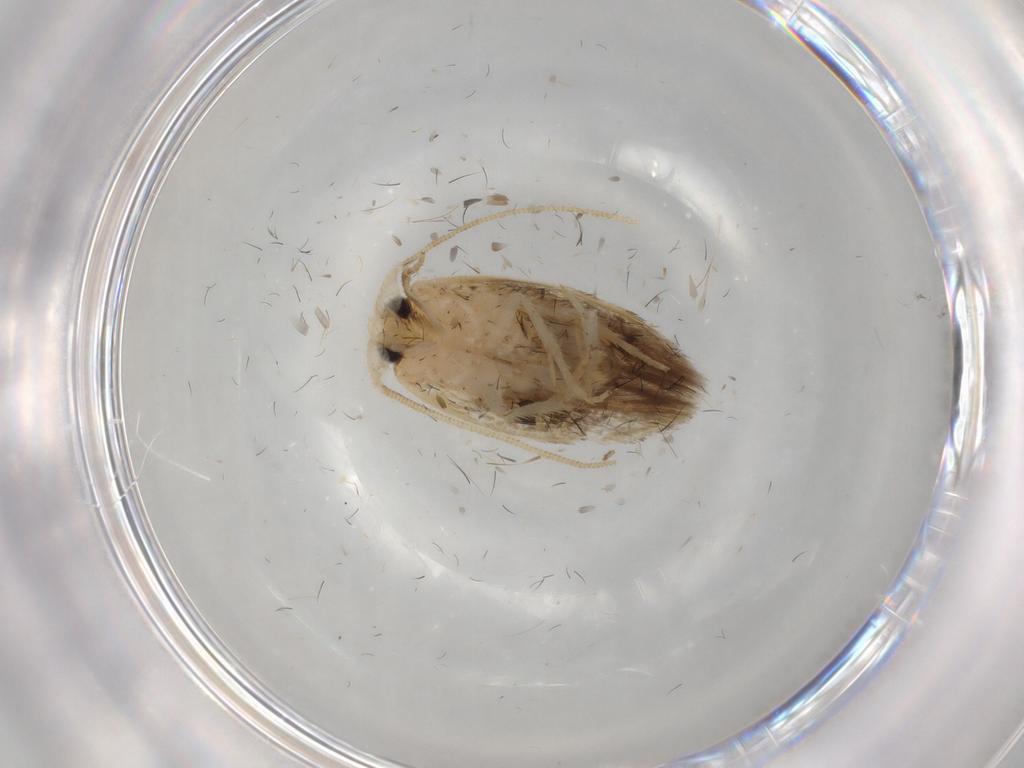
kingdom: Animalia
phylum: Arthropoda
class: Insecta
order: Lepidoptera
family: Opostegidae
